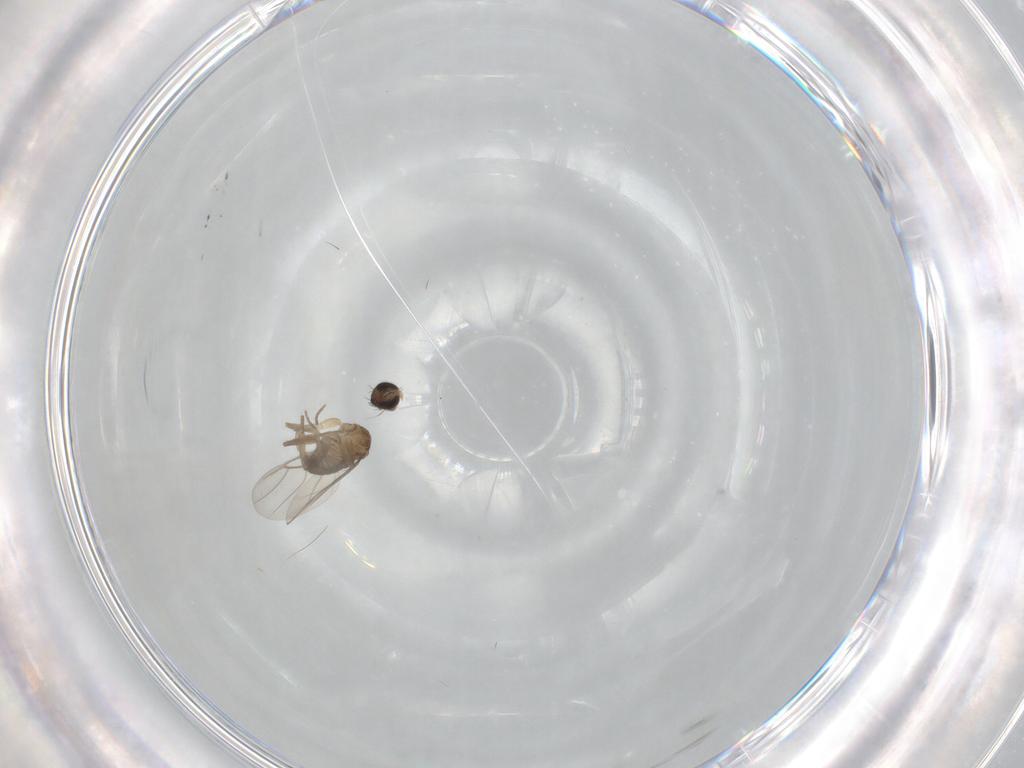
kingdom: Animalia
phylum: Arthropoda
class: Insecta
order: Diptera
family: Phoridae
